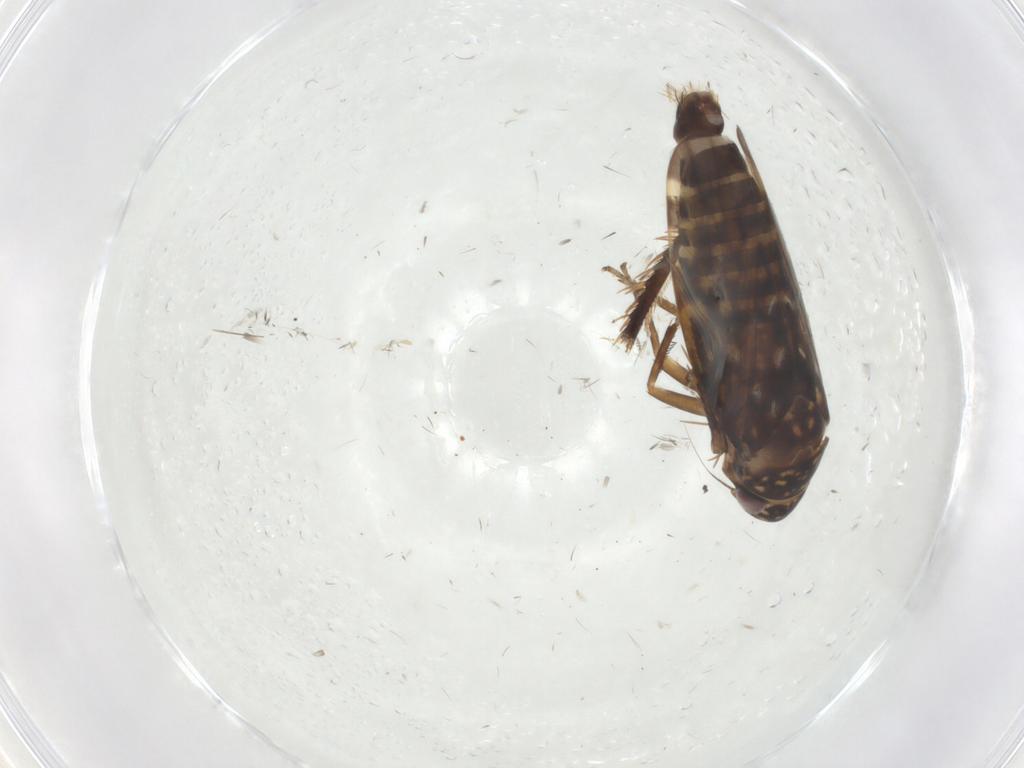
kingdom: Animalia
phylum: Arthropoda
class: Insecta
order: Hemiptera
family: Cicadellidae
